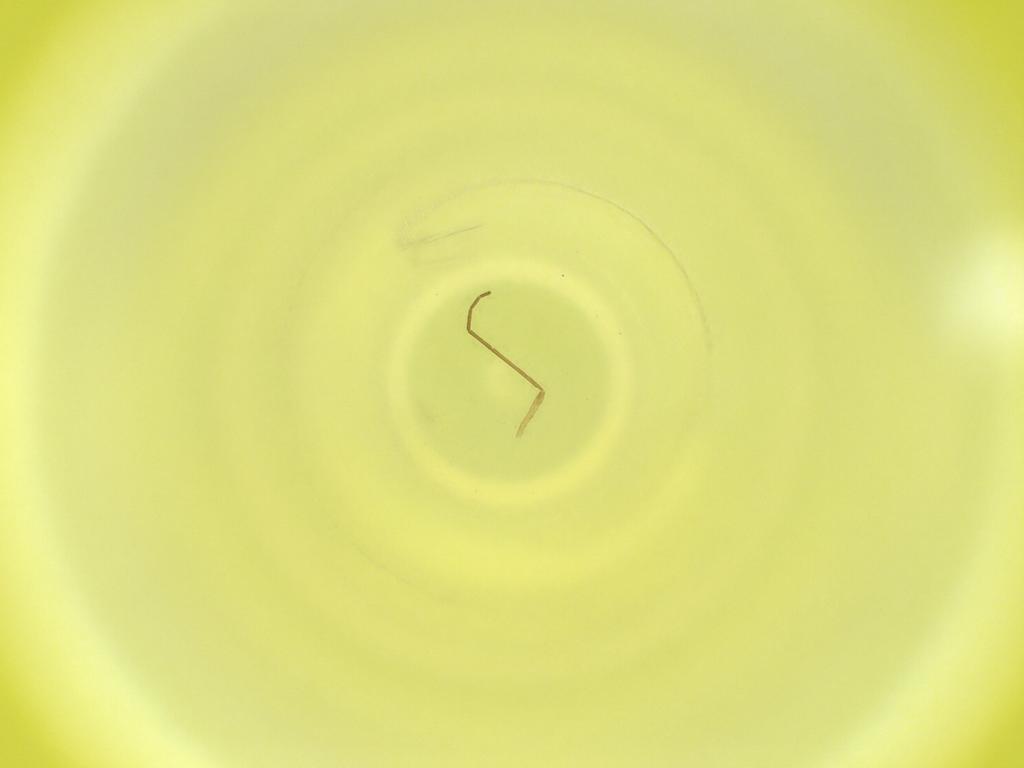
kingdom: Animalia
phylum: Arthropoda
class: Insecta
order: Diptera
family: Cecidomyiidae
